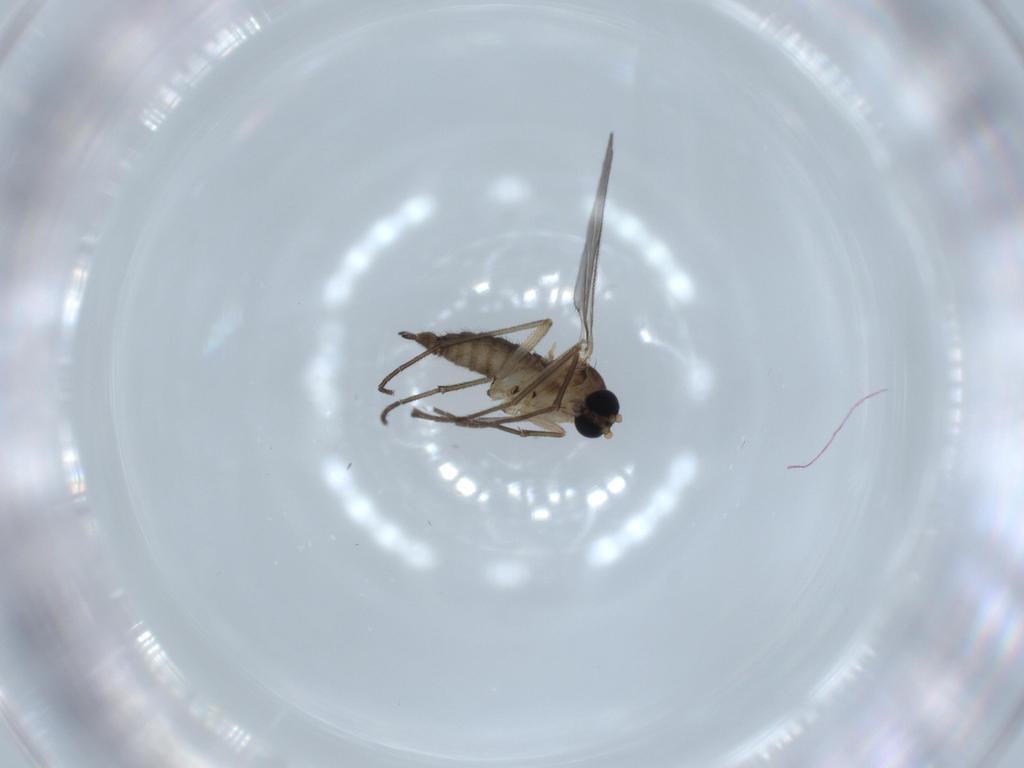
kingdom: Animalia
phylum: Arthropoda
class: Insecta
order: Diptera
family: Sciaridae
